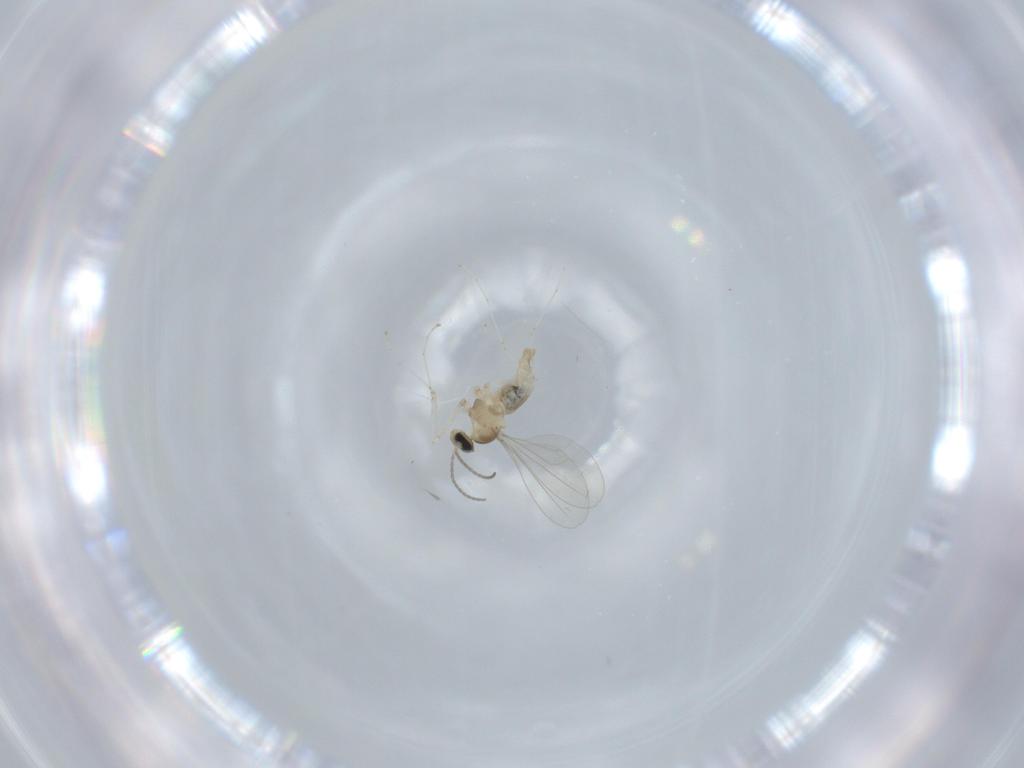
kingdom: Animalia
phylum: Arthropoda
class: Insecta
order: Diptera
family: Cecidomyiidae
